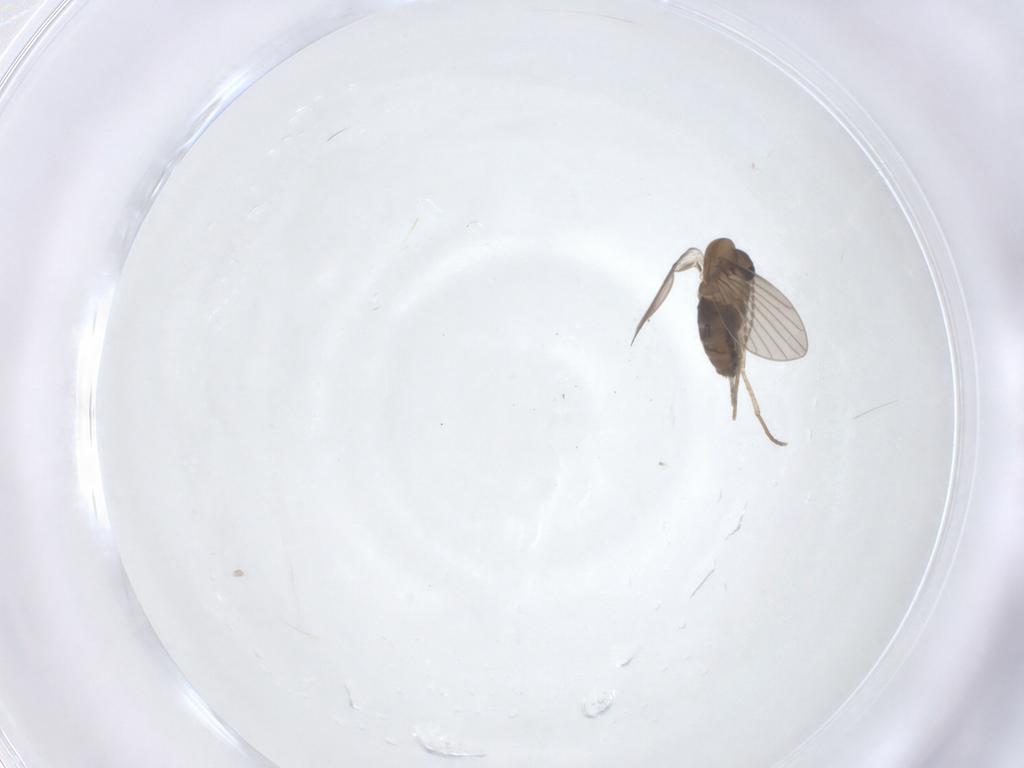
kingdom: Animalia
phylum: Arthropoda
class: Insecta
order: Diptera
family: Psychodidae
